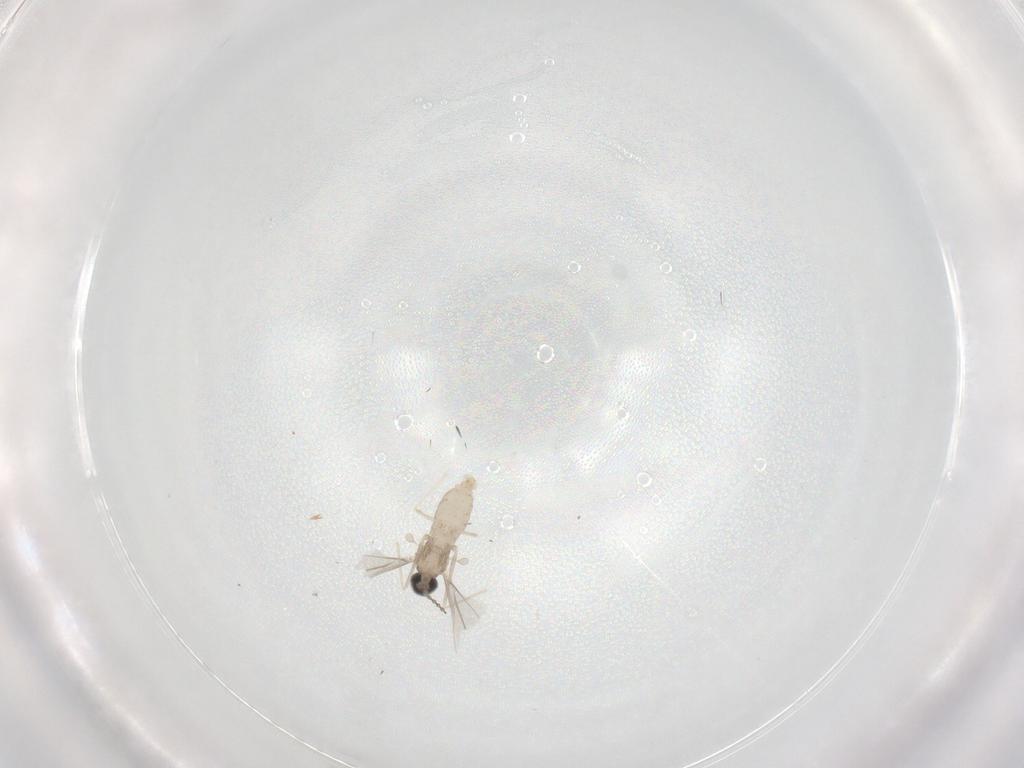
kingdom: Animalia
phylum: Arthropoda
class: Insecta
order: Diptera
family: Cecidomyiidae
